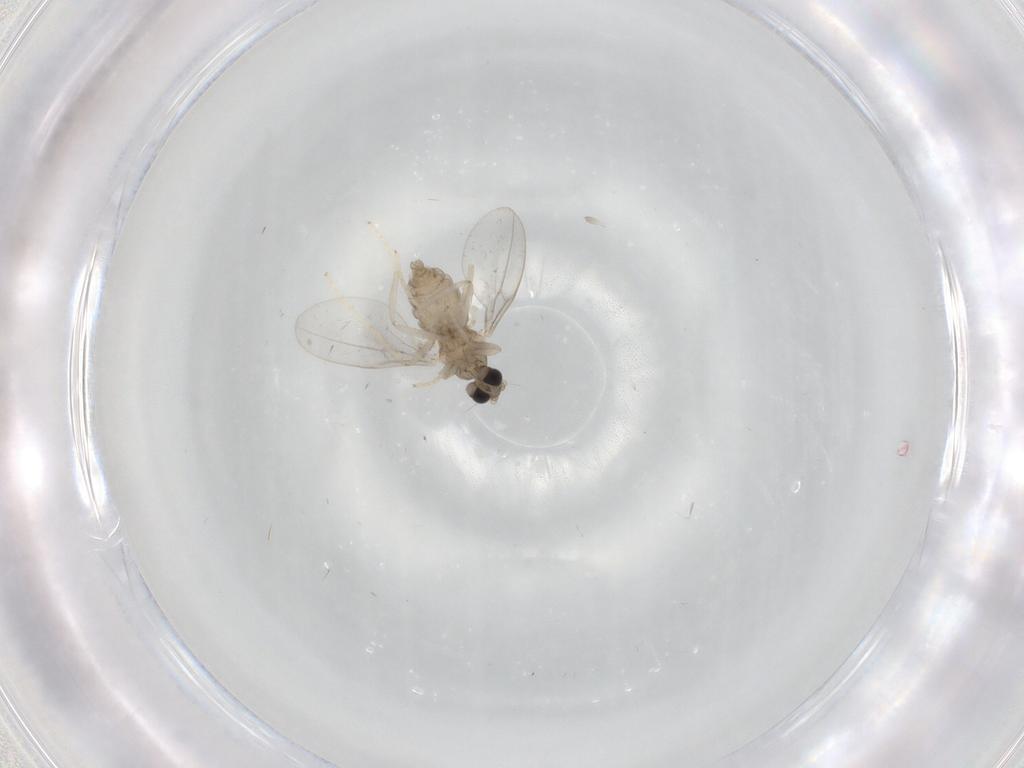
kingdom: Animalia
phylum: Arthropoda
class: Insecta
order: Diptera
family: Cecidomyiidae
